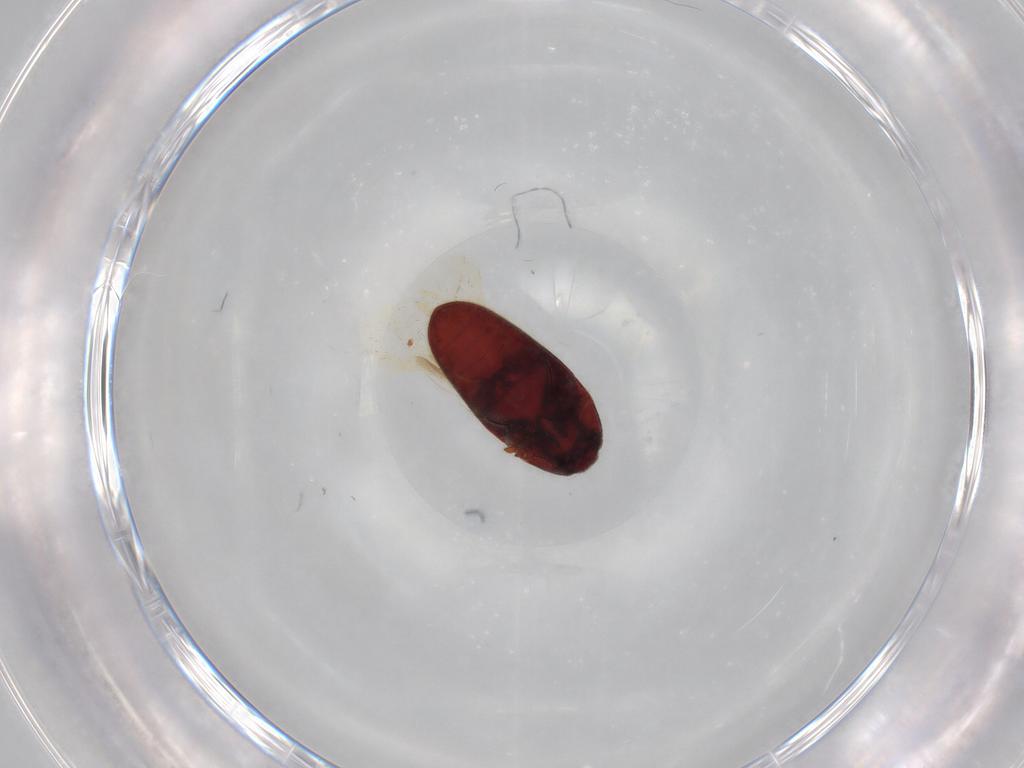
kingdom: Animalia
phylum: Arthropoda
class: Insecta
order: Coleoptera
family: Throscidae
